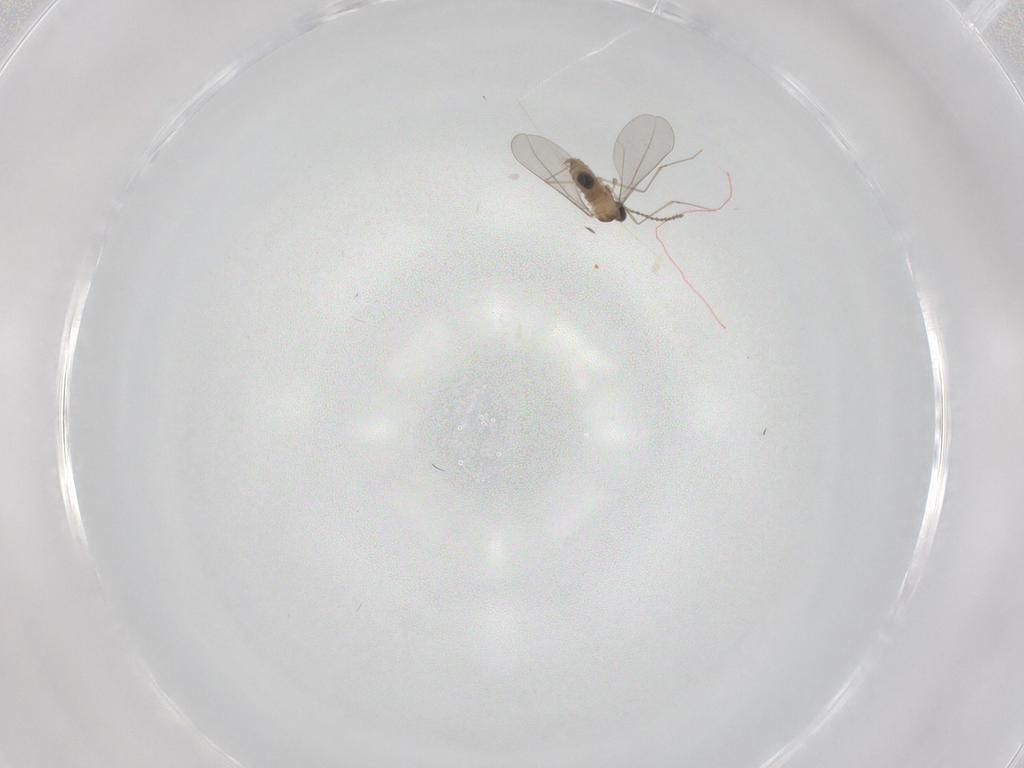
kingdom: Animalia
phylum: Arthropoda
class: Insecta
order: Diptera
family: Cecidomyiidae
